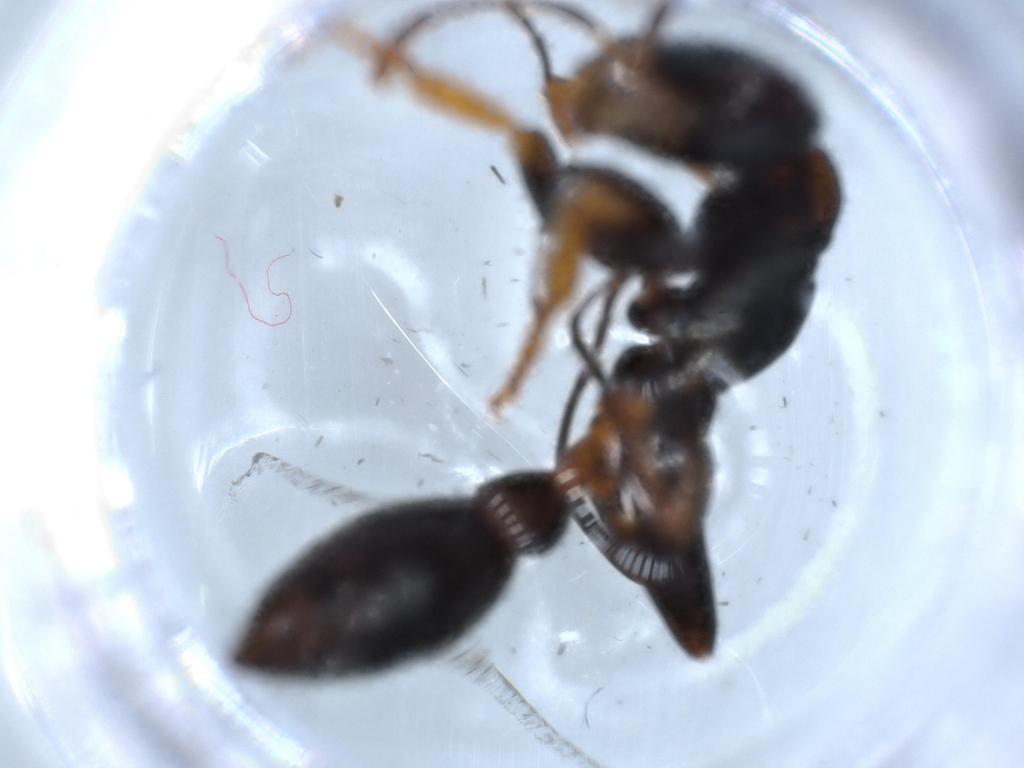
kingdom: Animalia
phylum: Arthropoda
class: Insecta
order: Hymenoptera
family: Formicidae
